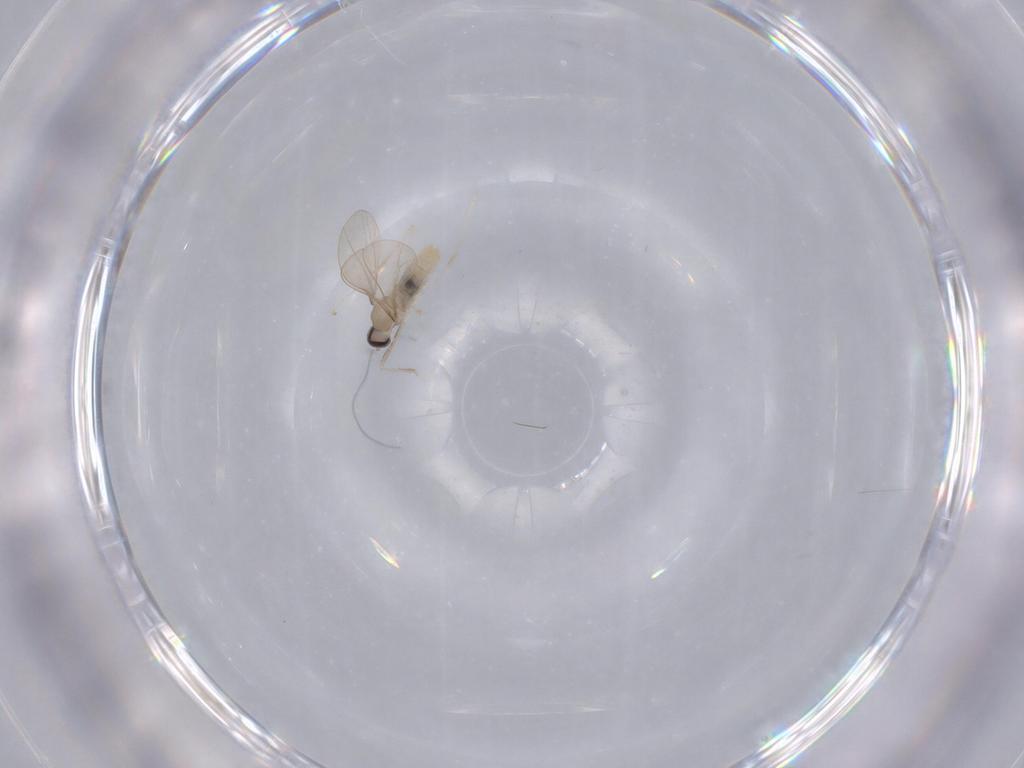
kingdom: Animalia
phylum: Arthropoda
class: Insecta
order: Diptera
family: Cecidomyiidae
